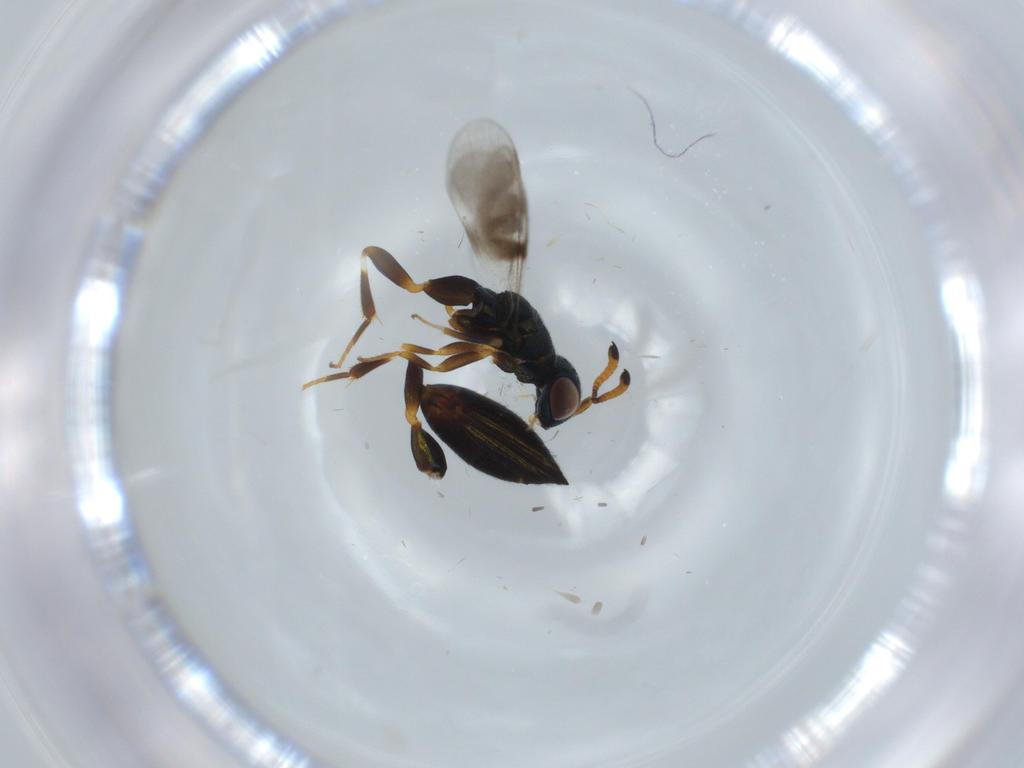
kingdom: Animalia
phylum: Arthropoda
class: Insecta
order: Hymenoptera
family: Cleonyminae
